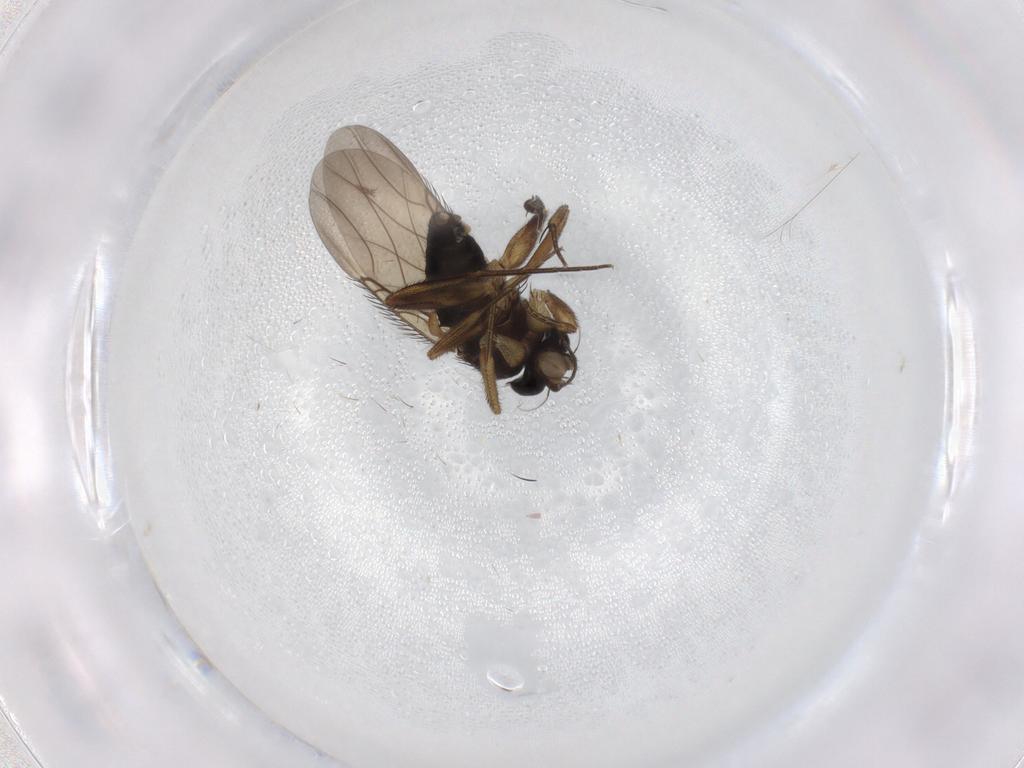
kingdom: Animalia
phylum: Arthropoda
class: Insecta
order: Diptera
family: Phoridae
